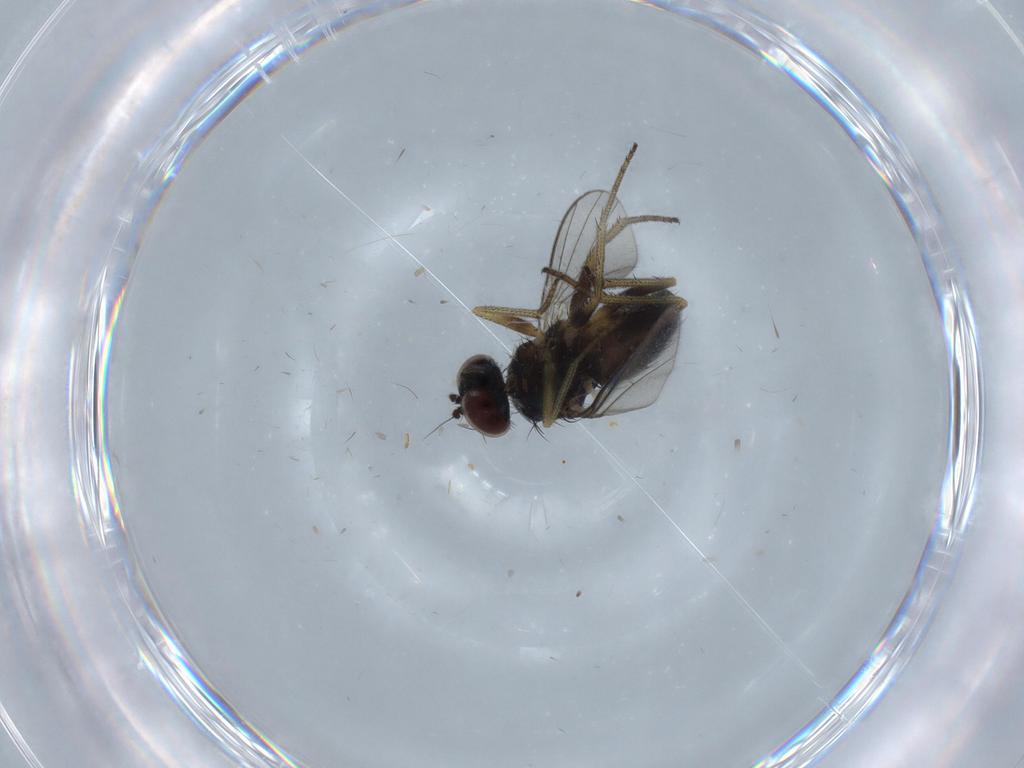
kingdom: Animalia
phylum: Arthropoda
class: Insecta
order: Diptera
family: Dolichopodidae
